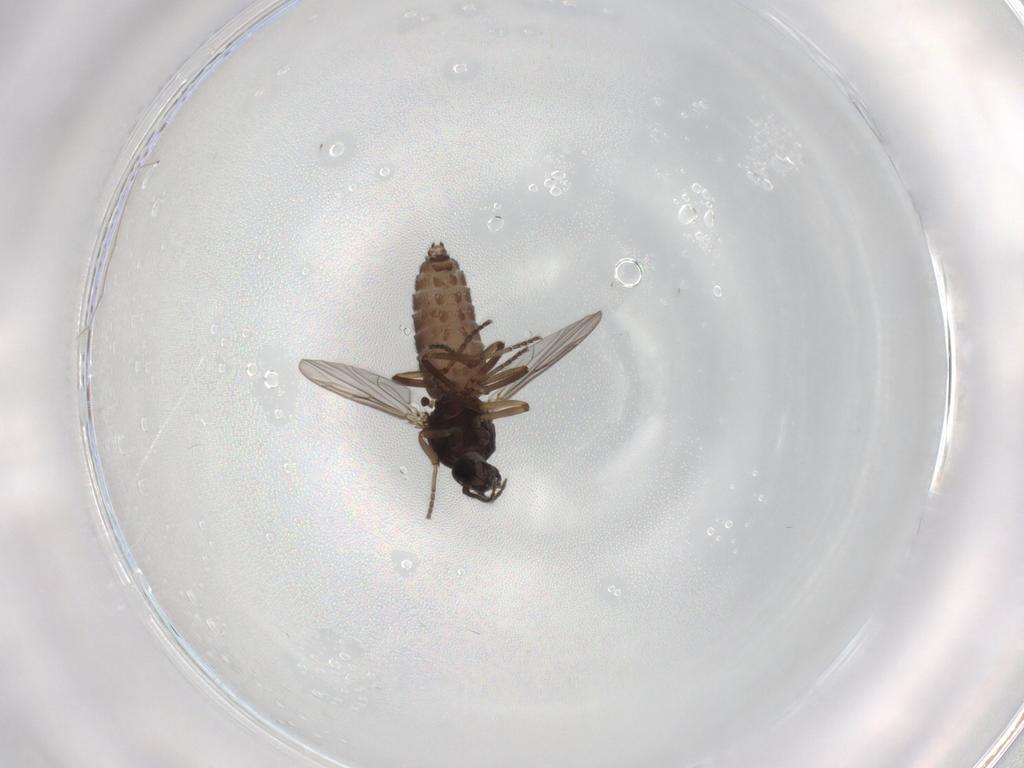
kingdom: Animalia
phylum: Arthropoda
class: Insecta
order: Diptera
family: Ceratopogonidae
